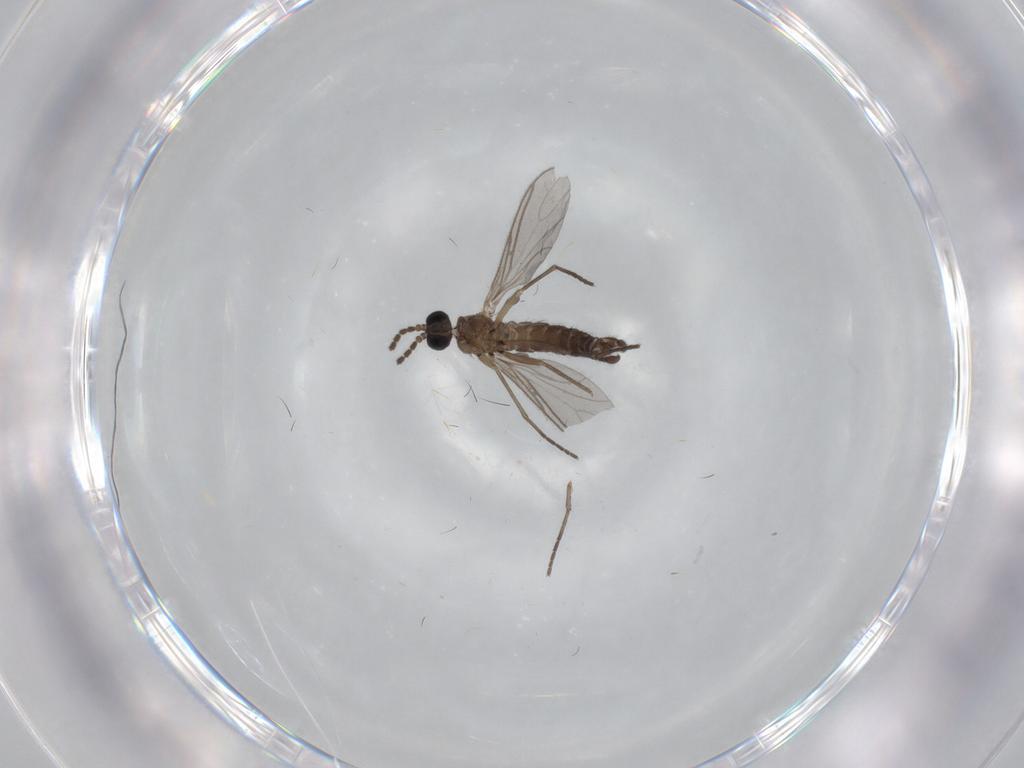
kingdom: Animalia
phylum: Arthropoda
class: Insecta
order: Diptera
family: Sciaridae
